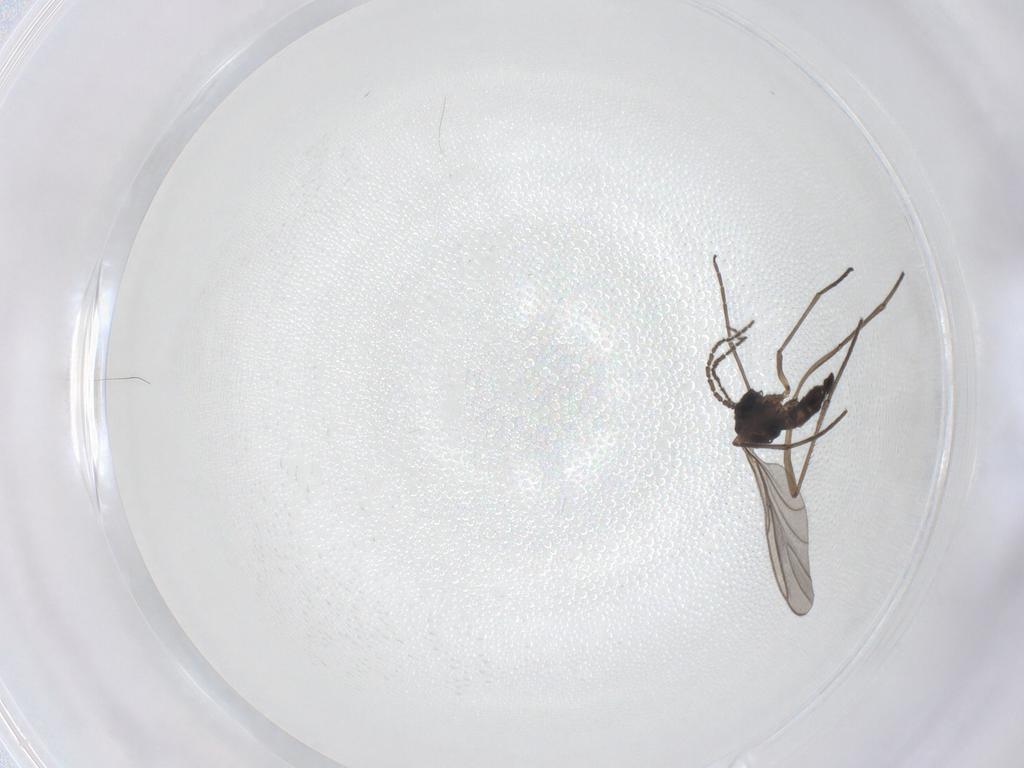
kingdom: Animalia
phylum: Arthropoda
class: Insecta
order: Diptera
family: Sciaridae
